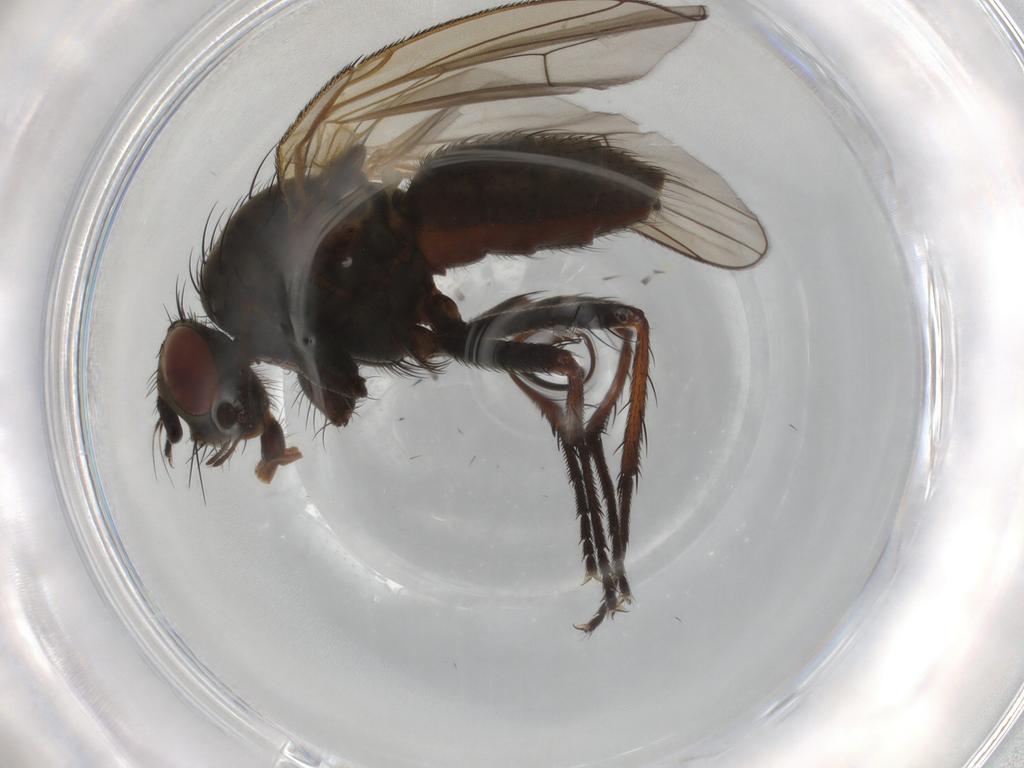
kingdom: Animalia
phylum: Arthropoda
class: Insecta
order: Diptera
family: Anthomyiidae
